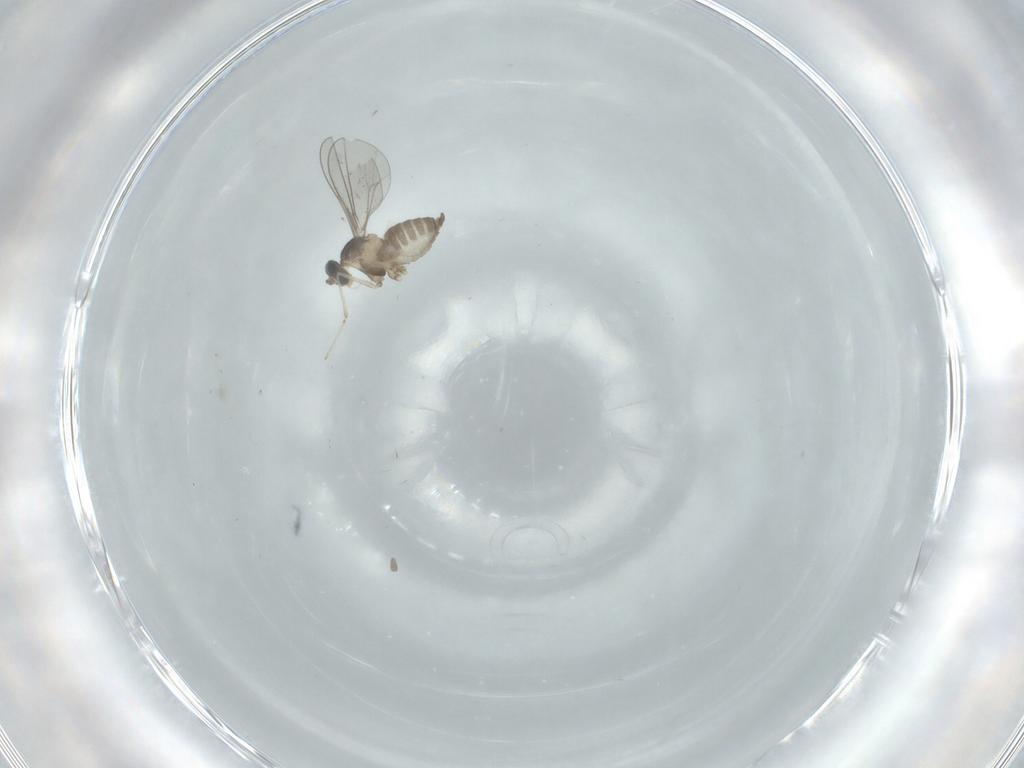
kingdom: Animalia
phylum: Arthropoda
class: Insecta
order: Diptera
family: Cecidomyiidae
